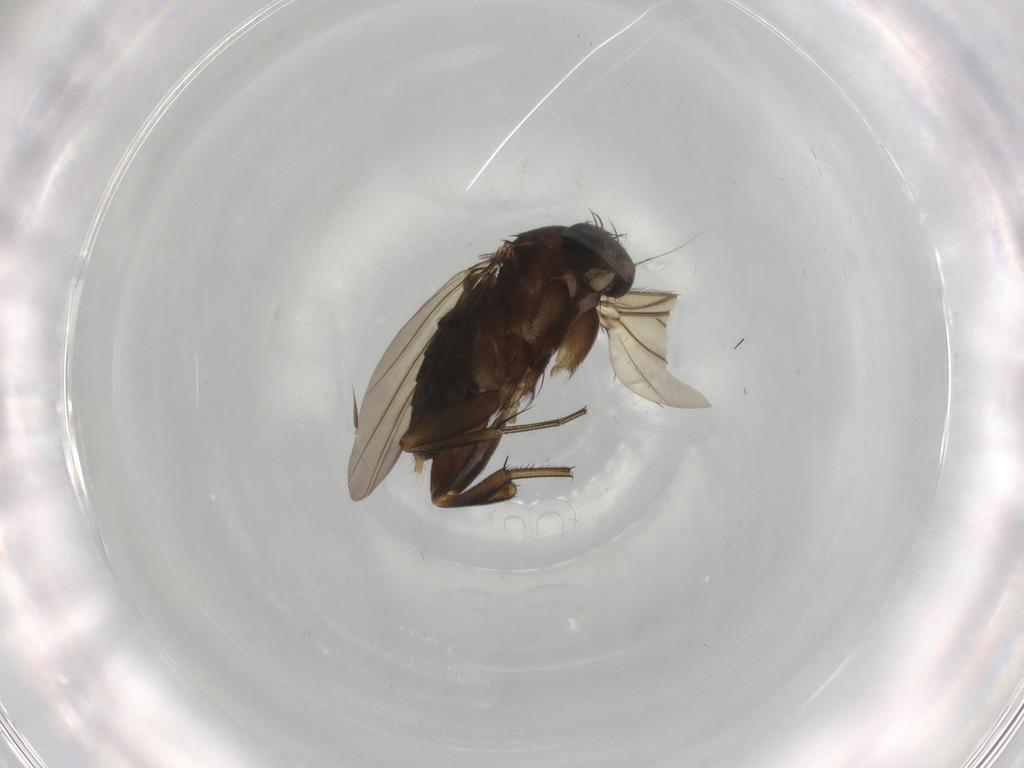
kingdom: Animalia
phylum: Arthropoda
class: Insecta
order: Diptera
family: Phoridae
